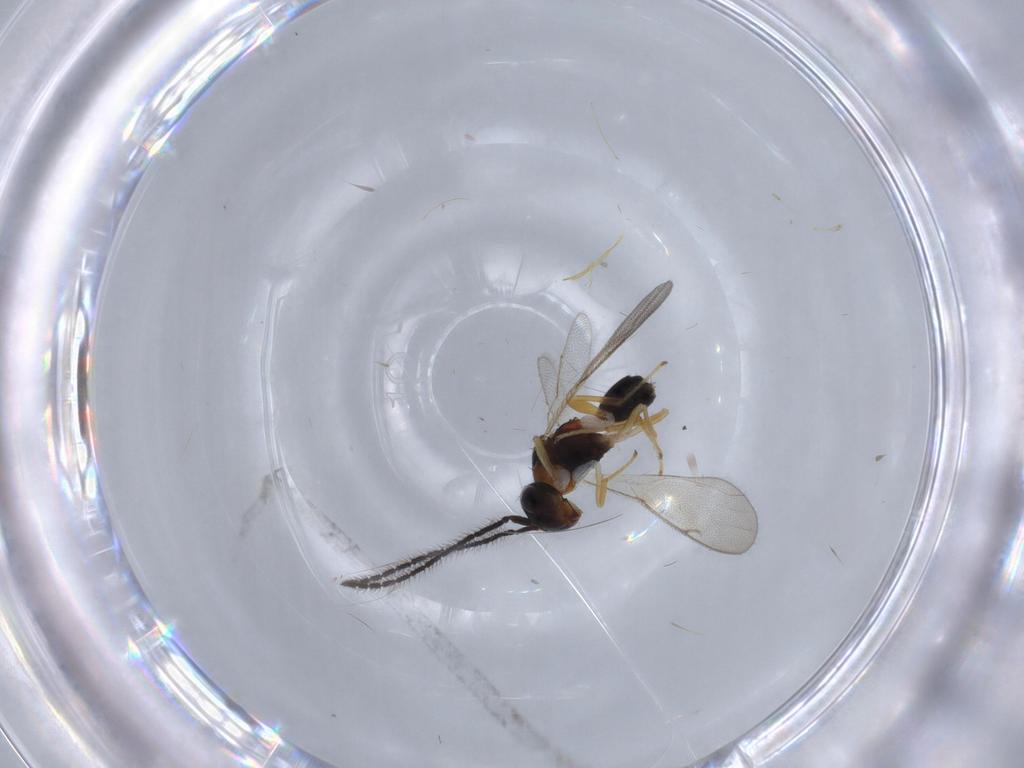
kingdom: Animalia
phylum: Arthropoda
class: Insecta
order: Hymenoptera
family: Diparidae
